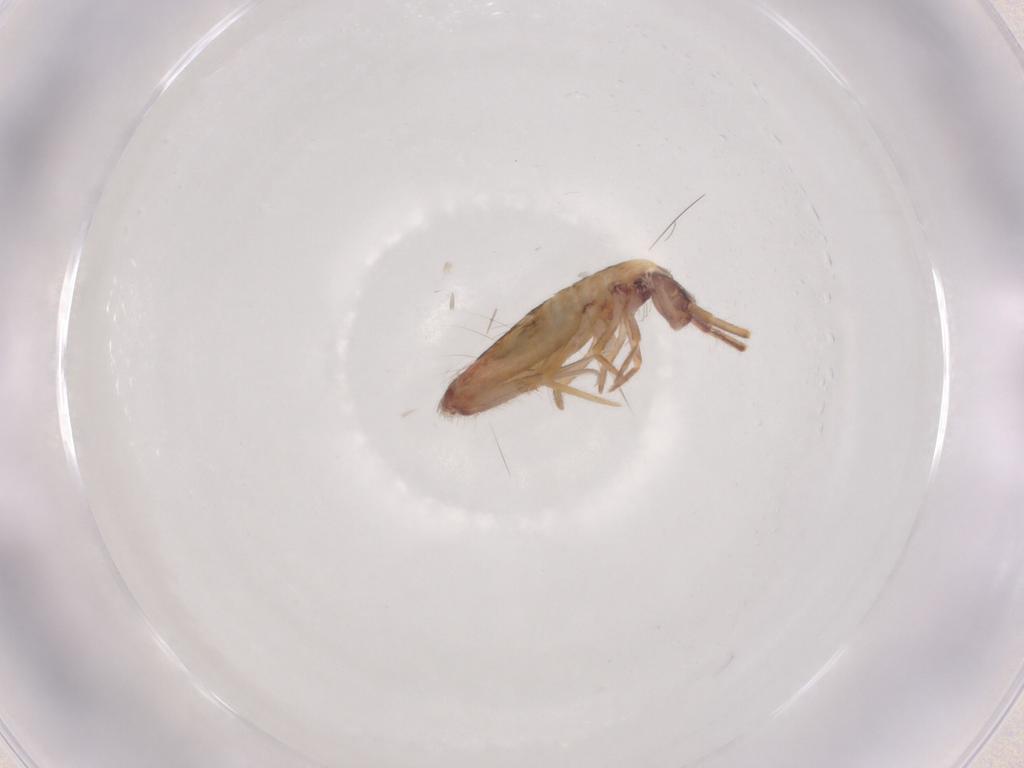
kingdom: Animalia
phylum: Arthropoda
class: Collembola
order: Entomobryomorpha
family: Entomobryidae
